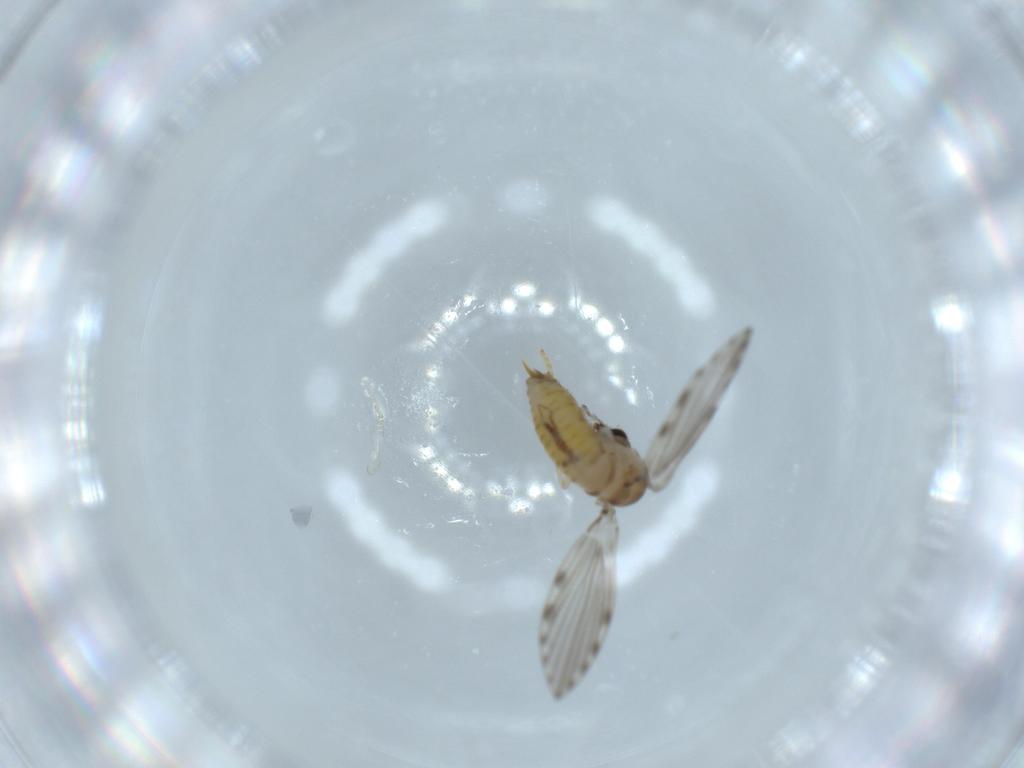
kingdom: Animalia
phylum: Arthropoda
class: Insecta
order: Diptera
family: Psychodidae
